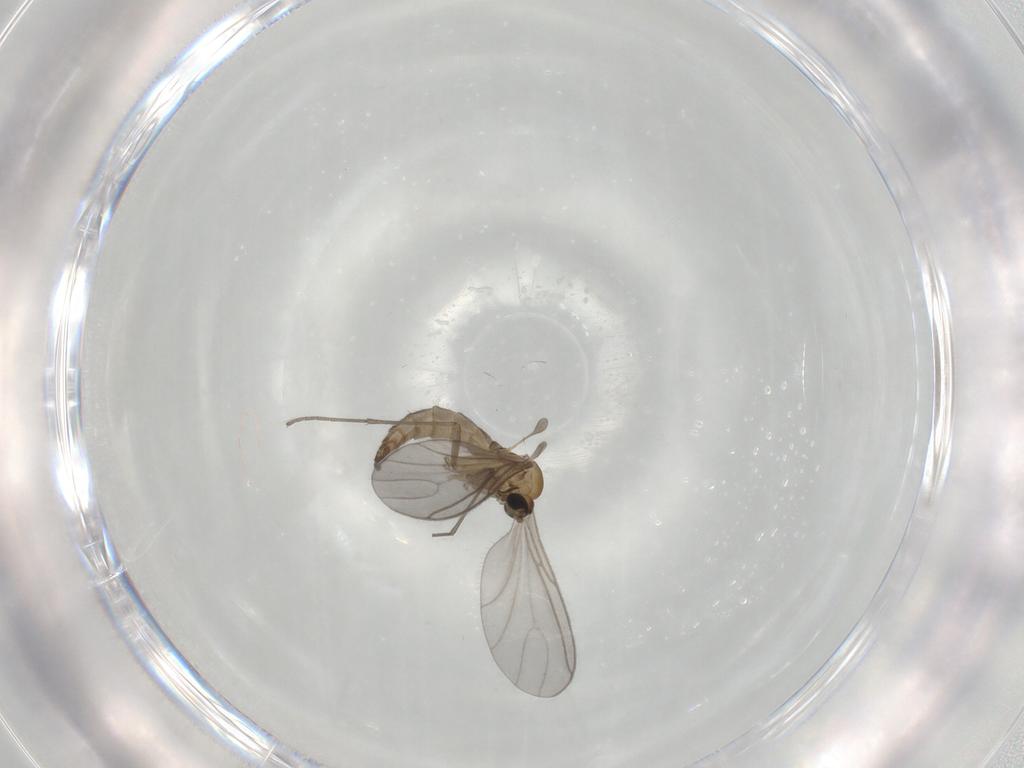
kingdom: Animalia
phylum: Arthropoda
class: Insecta
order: Diptera
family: Sciaridae
